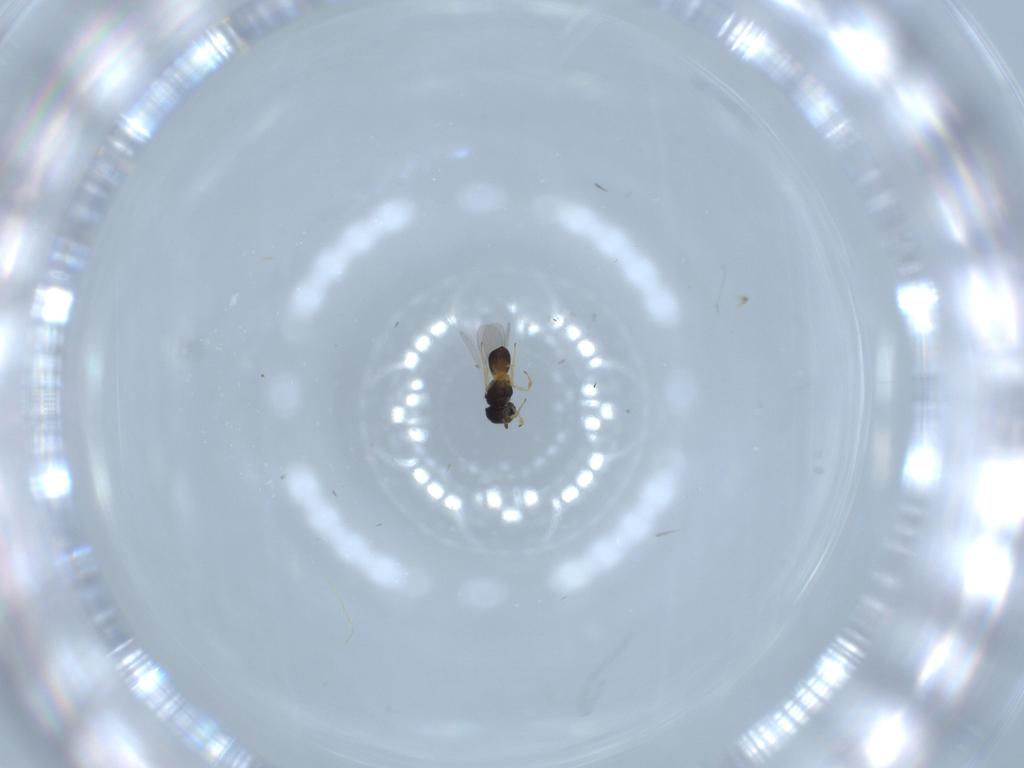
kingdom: Animalia
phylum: Arthropoda
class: Insecta
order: Hymenoptera
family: Scelionidae
